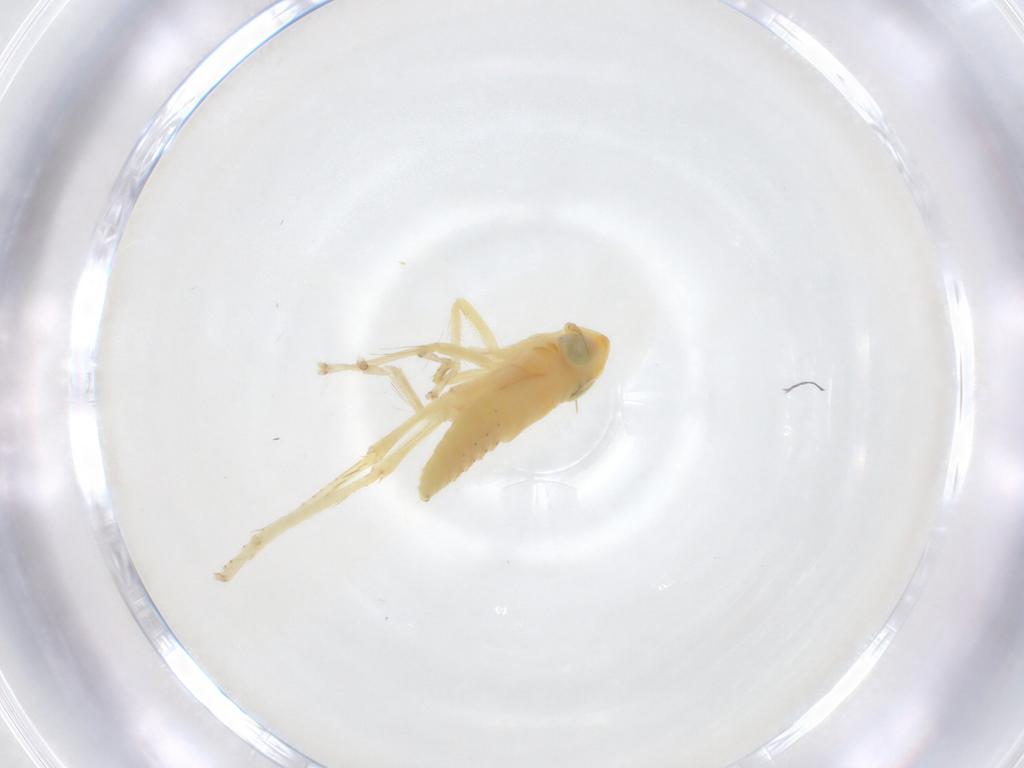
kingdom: Animalia
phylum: Arthropoda
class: Insecta
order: Hemiptera
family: Cicadellidae
